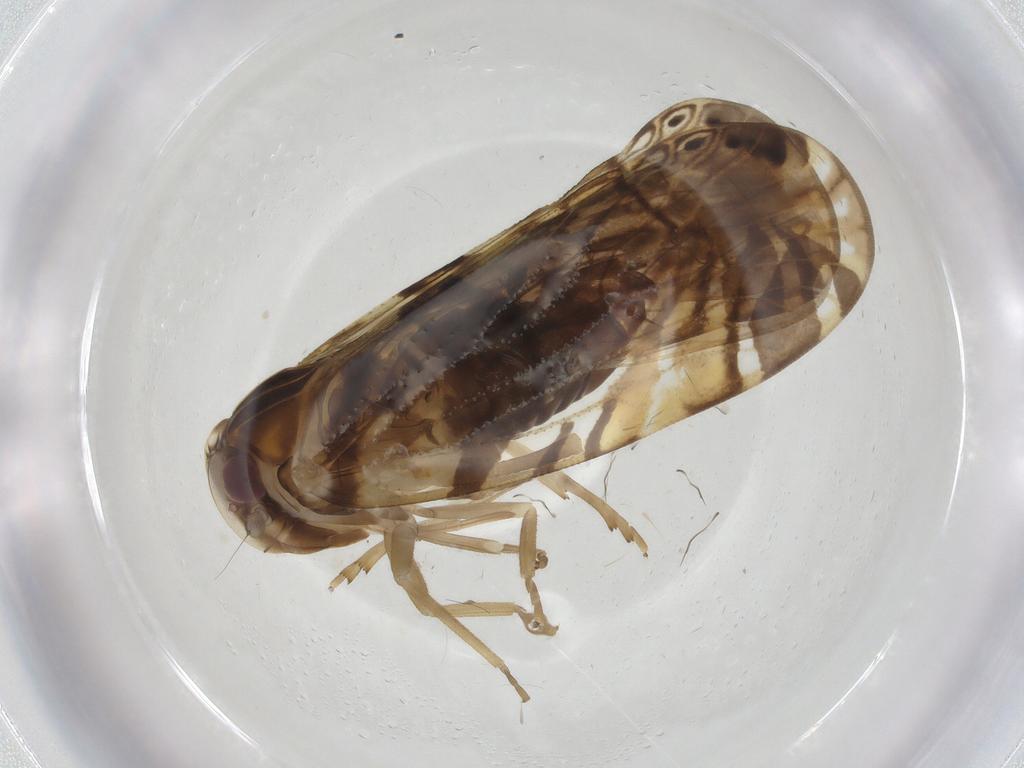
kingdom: Animalia
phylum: Arthropoda
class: Insecta
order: Hemiptera
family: Cixiidae
